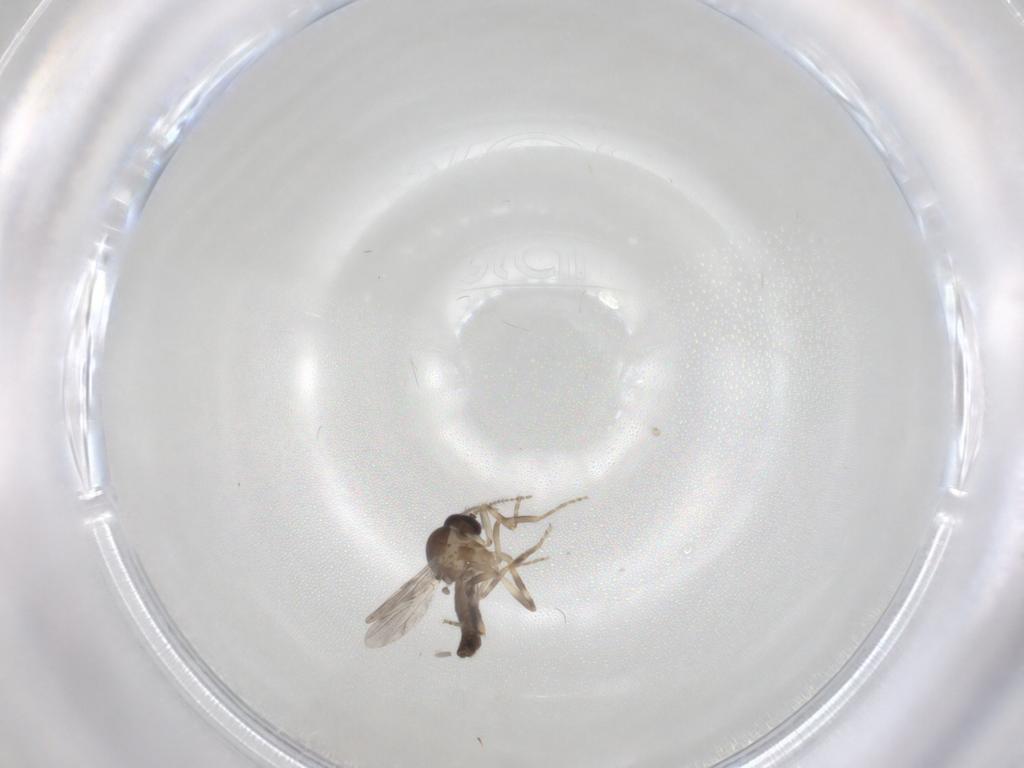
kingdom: Animalia
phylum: Arthropoda
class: Insecta
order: Diptera
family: Ceratopogonidae
